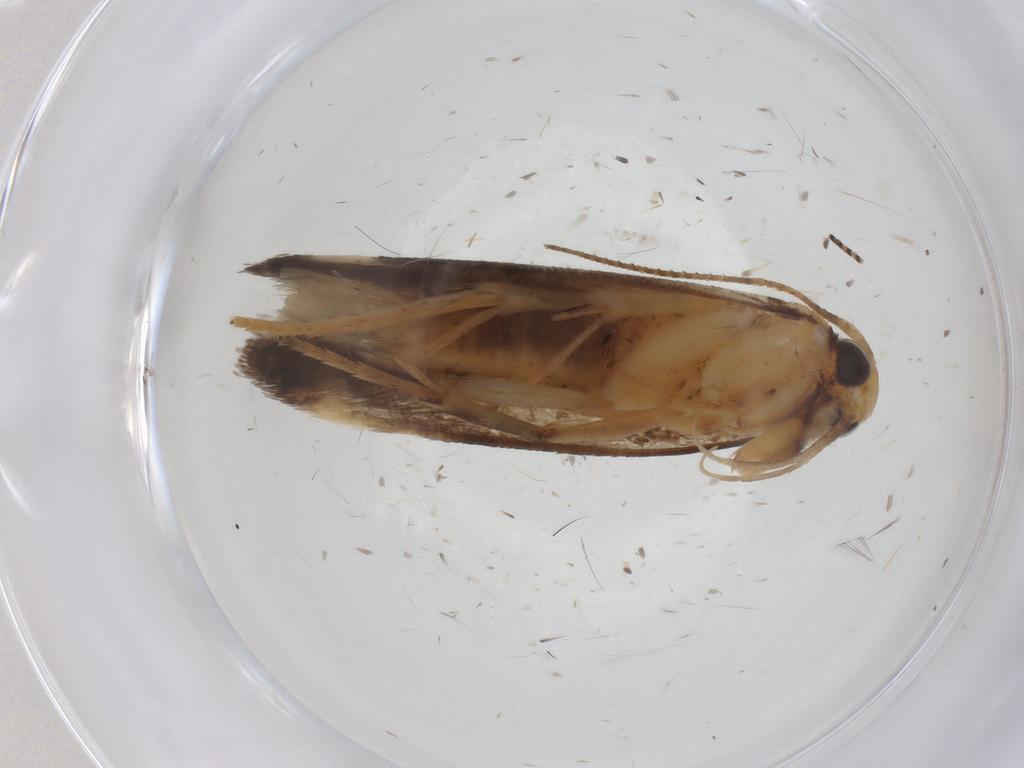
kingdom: Animalia
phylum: Arthropoda
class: Insecta
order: Lepidoptera
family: Gelechiidae
